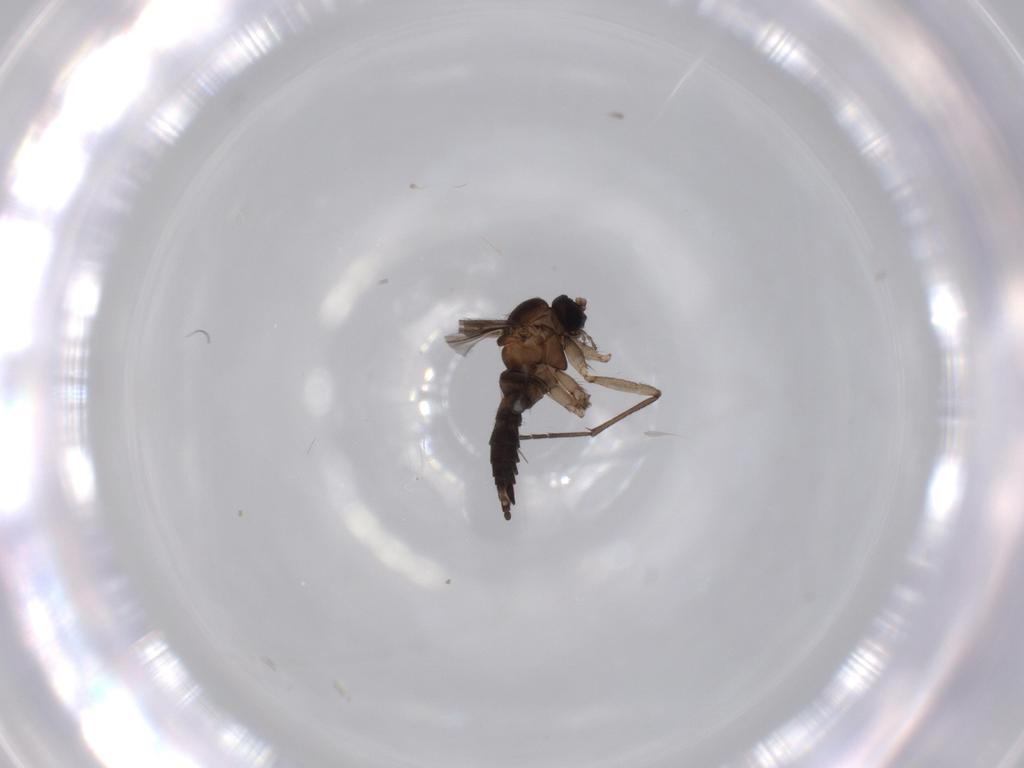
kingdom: Animalia
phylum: Arthropoda
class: Insecta
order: Diptera
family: Sciaridae
